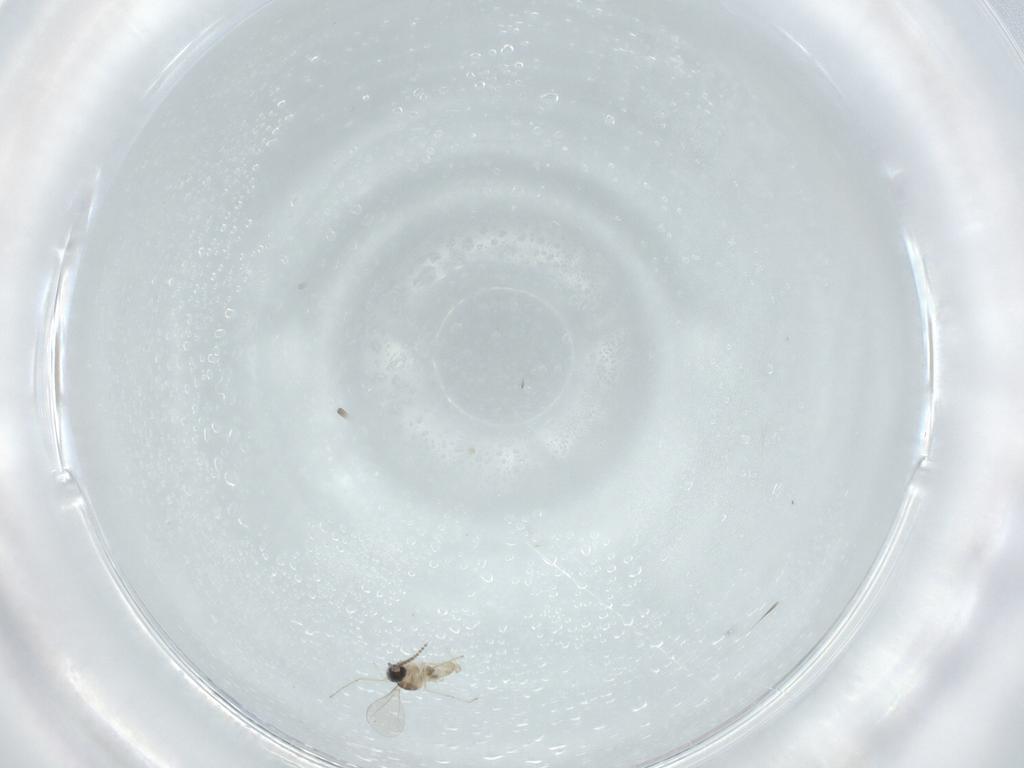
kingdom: Animalia
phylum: Arthropoda
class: Insecta
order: Diptera
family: Cecidomyiidae
